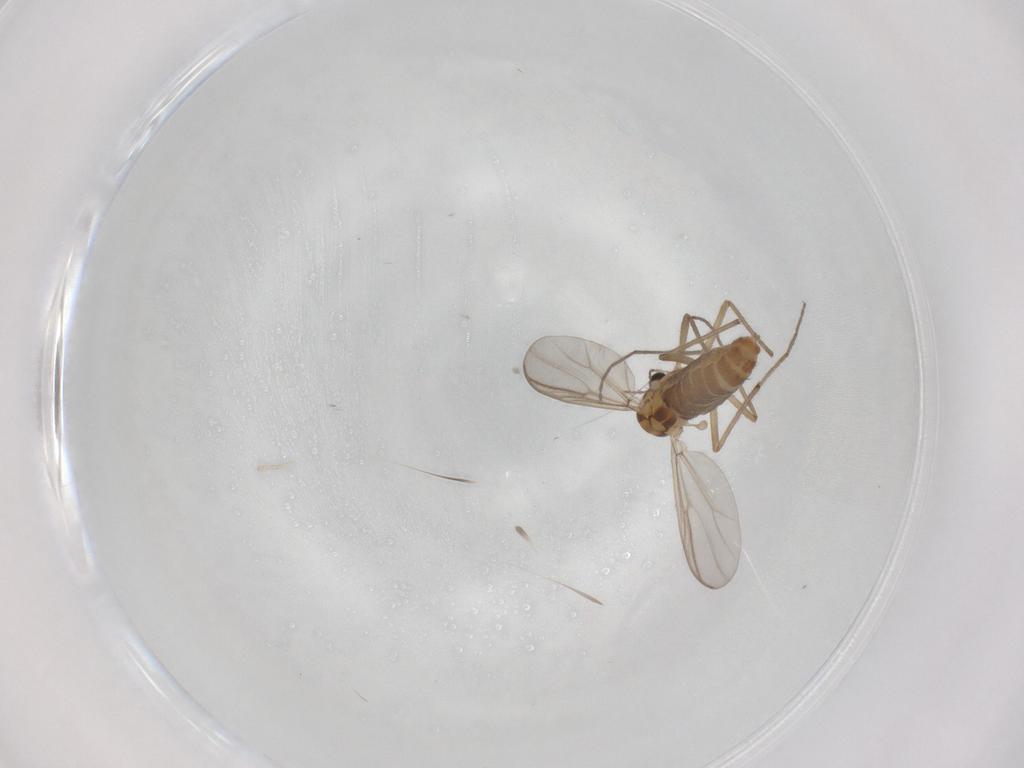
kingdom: Animalia
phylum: Arthropoda
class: Insecta
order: Diptera
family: Chironomidae
